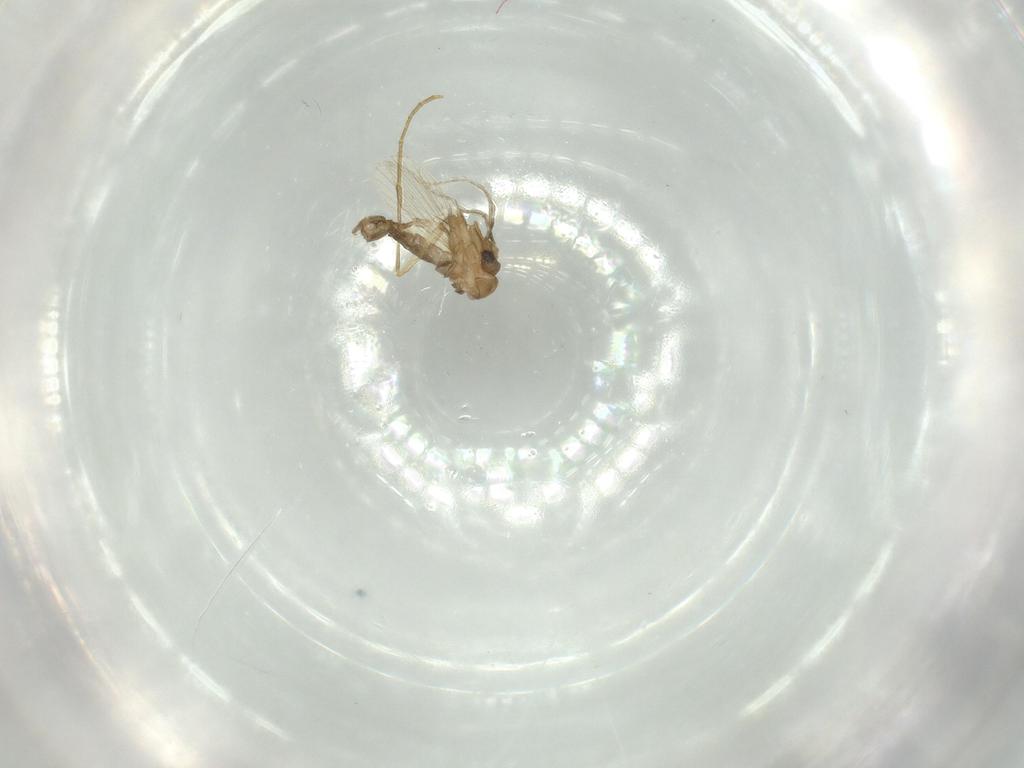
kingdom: Animalia
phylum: Arthropoda
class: Insecta
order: Diptera
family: Psychodidae
